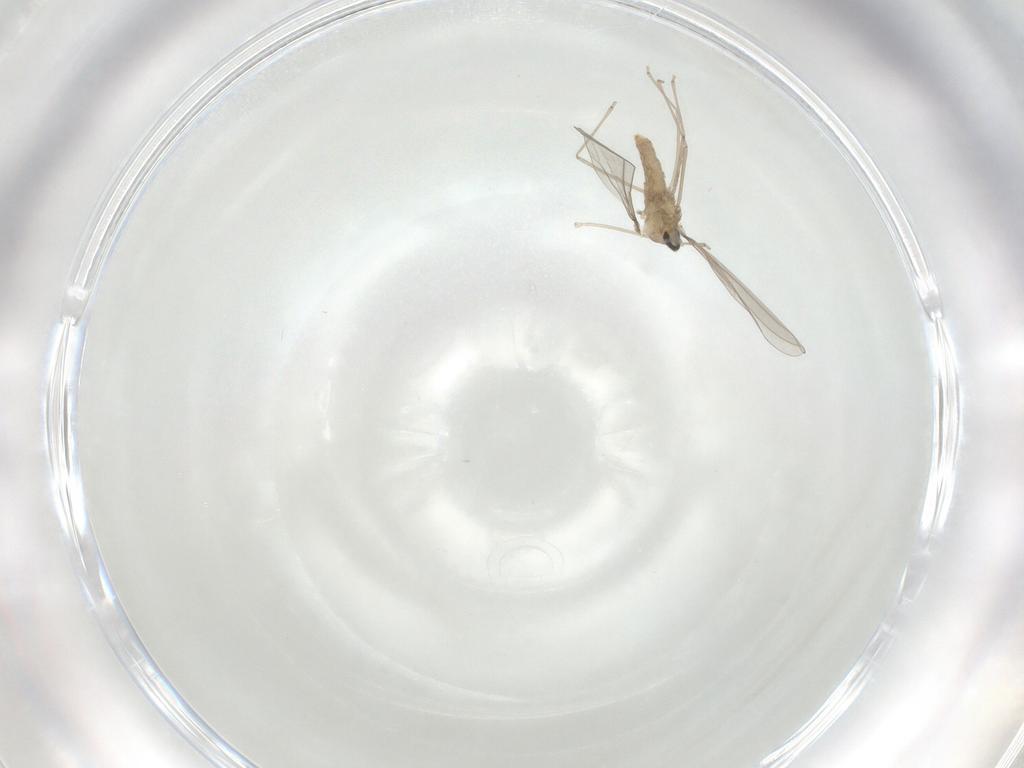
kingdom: Animalia
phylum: Arthropoda
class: Insecta
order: Diptera
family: Cecidomyiidae
